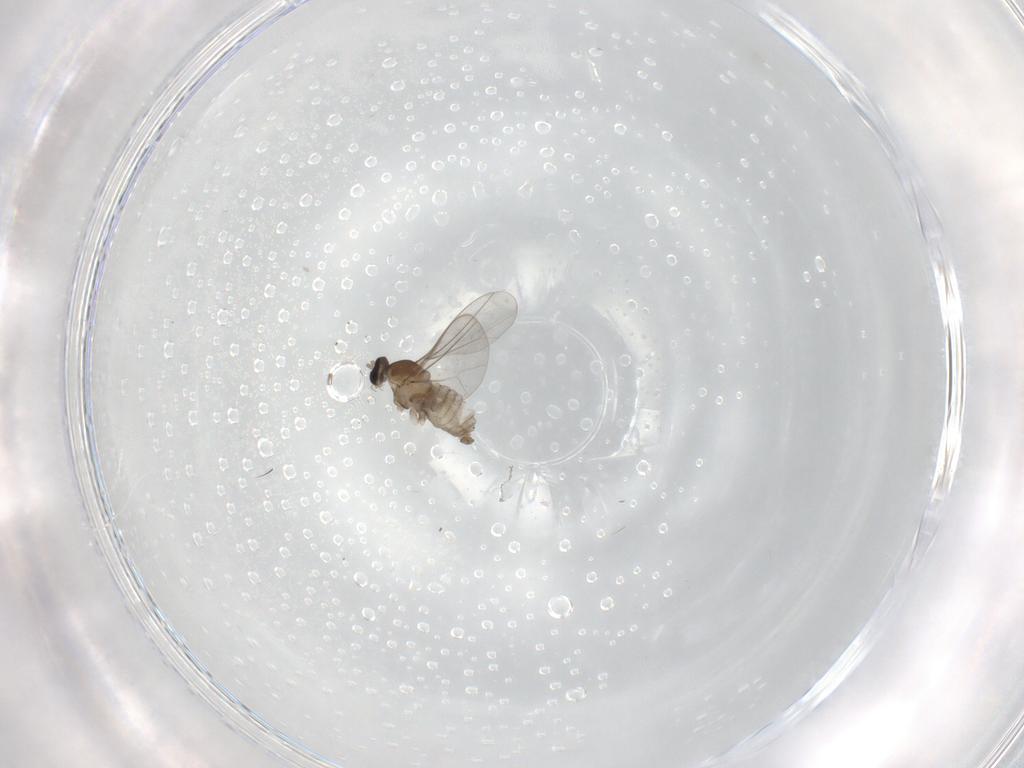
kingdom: Animalia
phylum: Arthropoda
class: Insecta
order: Diptera
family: Cecidomyiidae
